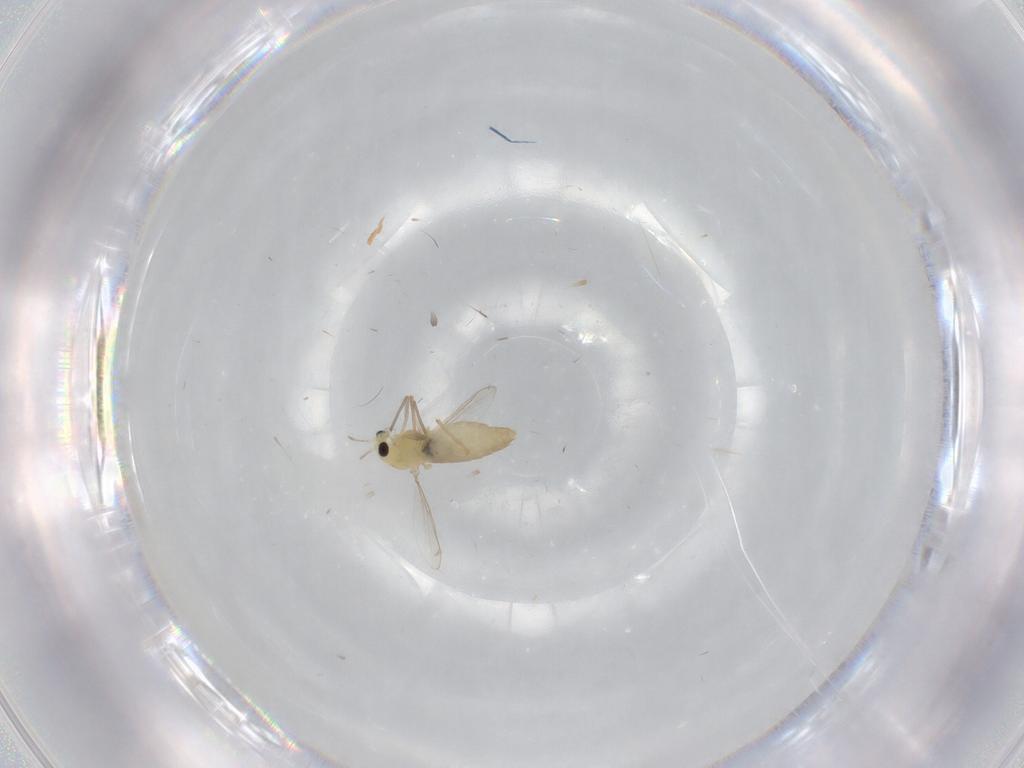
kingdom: Animalia
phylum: Arthropoda
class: Insecta
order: Diptera
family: Chironomidae
